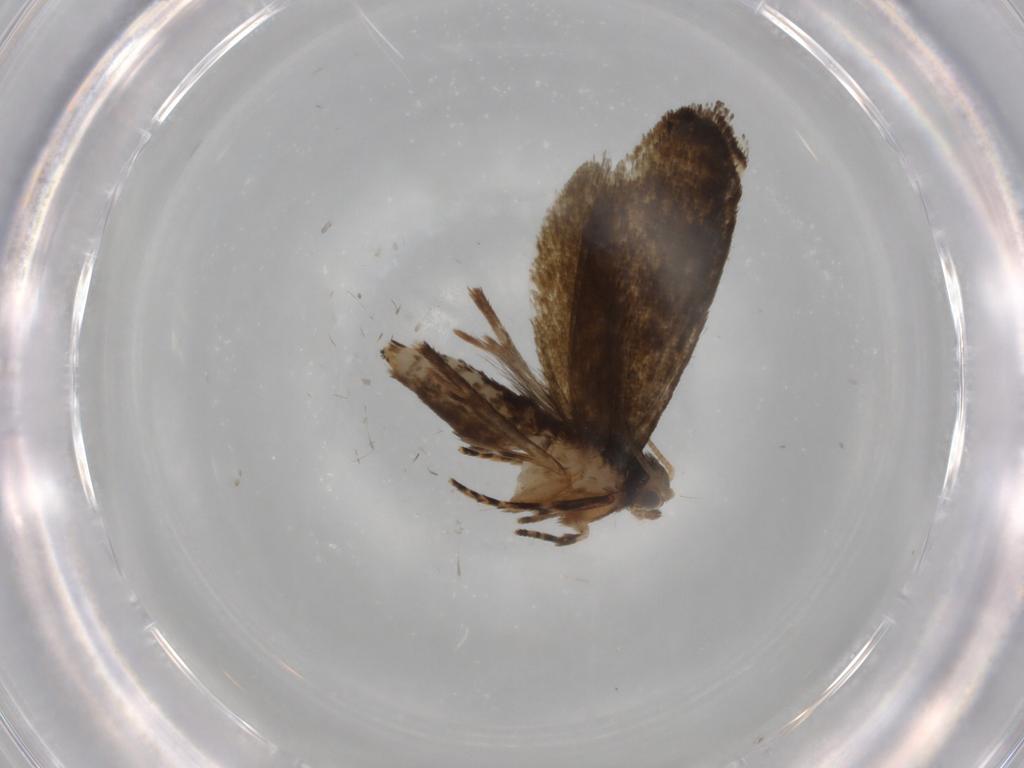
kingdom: Animalia
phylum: Arthropoda
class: Insecta
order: Lepidoptera
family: Crambidae
